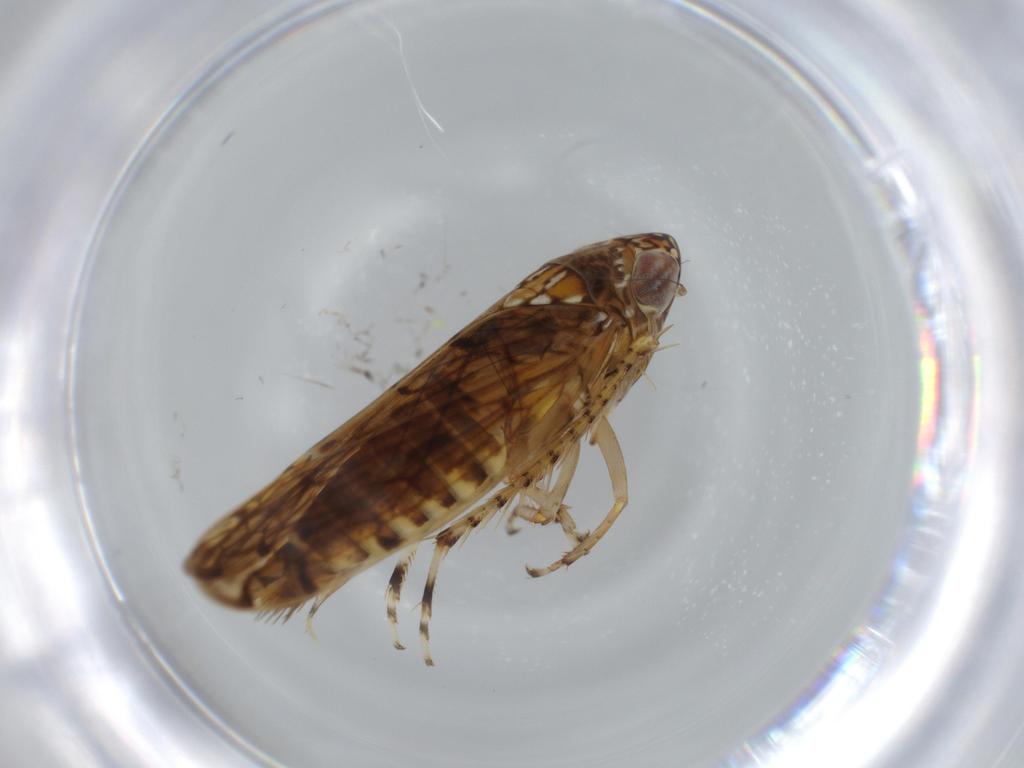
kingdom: Animalia
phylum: Arthropoda
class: Insecta
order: Hemiptera
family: Cicadellidae
